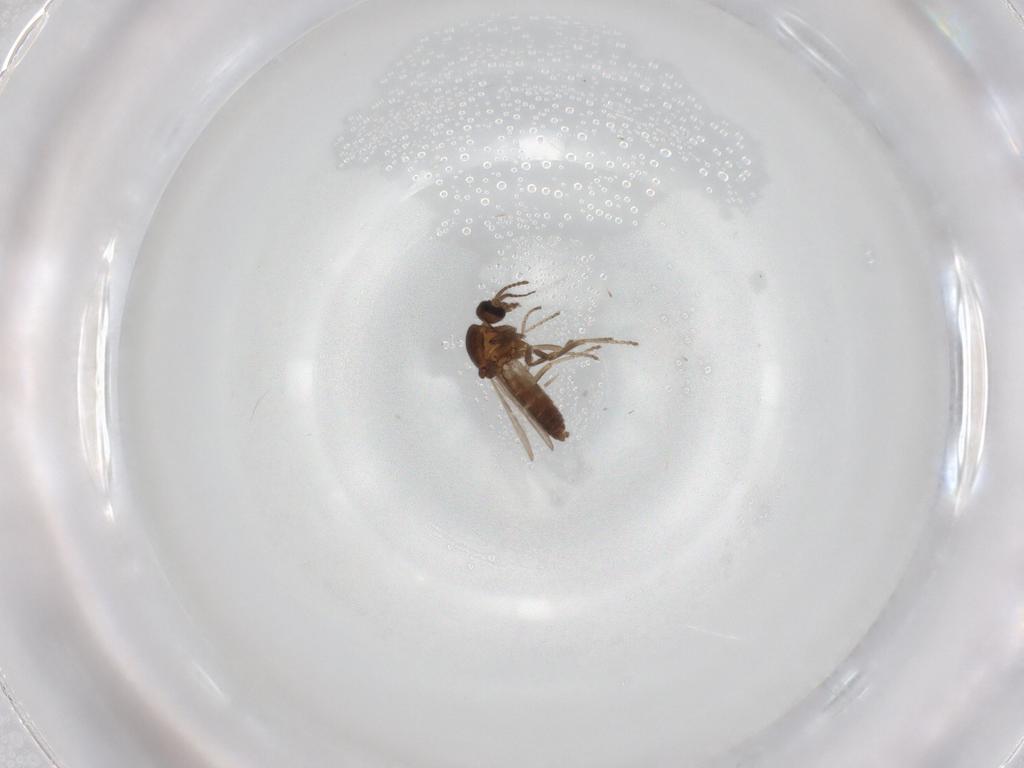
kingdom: Animalia
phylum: Arthropoda
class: Insecta
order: Diptera
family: Ceratopogonidae
